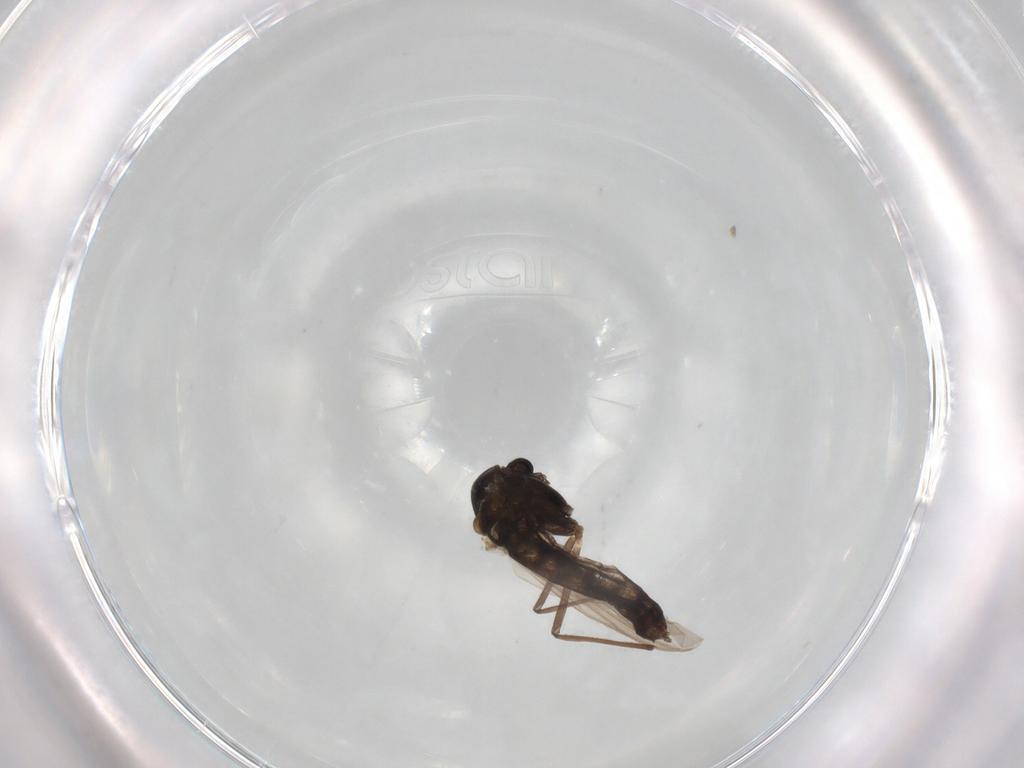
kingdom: Animalia
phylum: Arthropoda
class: Insecta
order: Diptera
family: Chironomidae
